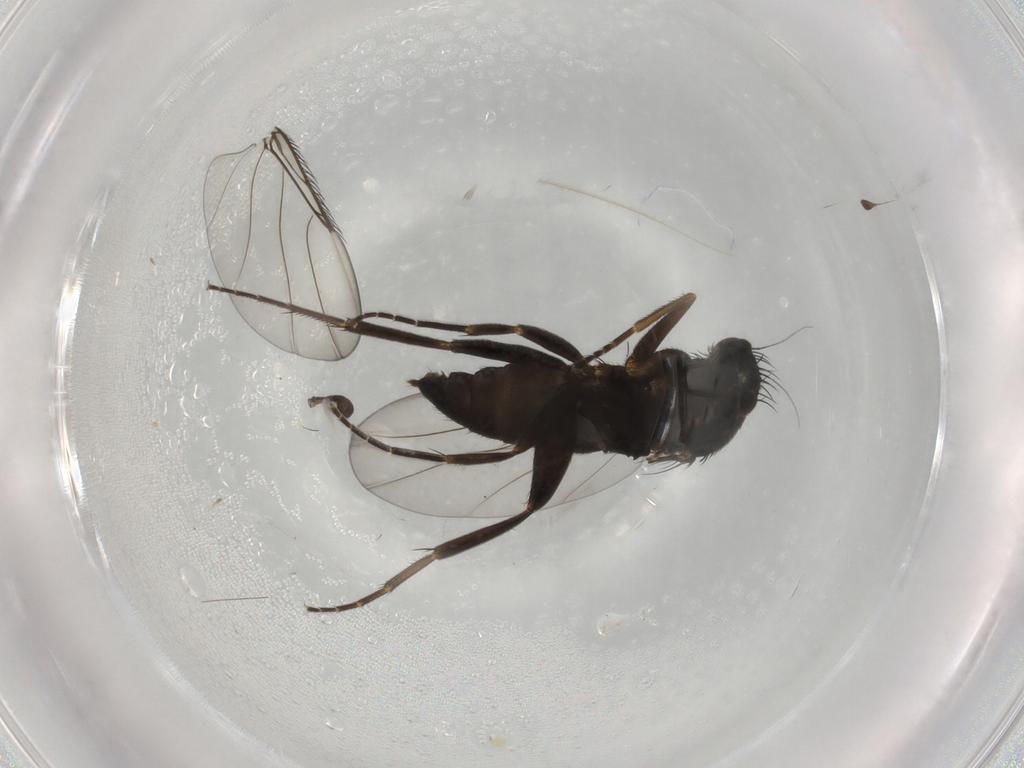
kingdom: Animalia
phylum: Arthropoda
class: Insecta
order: Diptera
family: Phoridae
